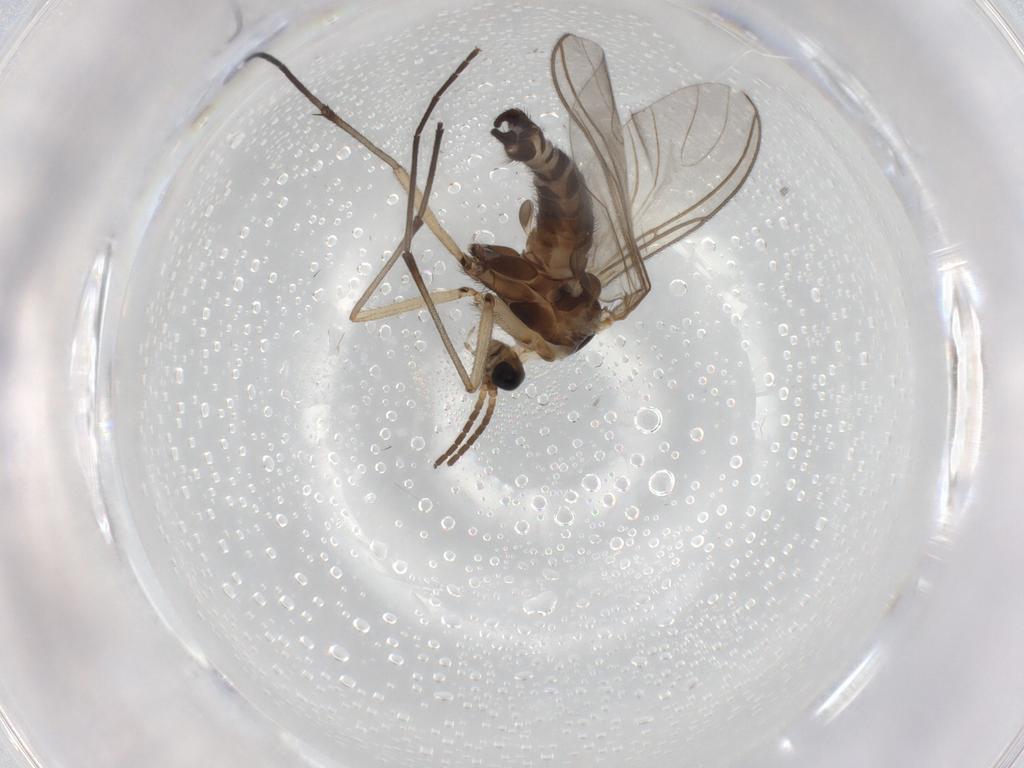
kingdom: Animalia
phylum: Arthropoda
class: Insecta
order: Diptera
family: Sciaridae
